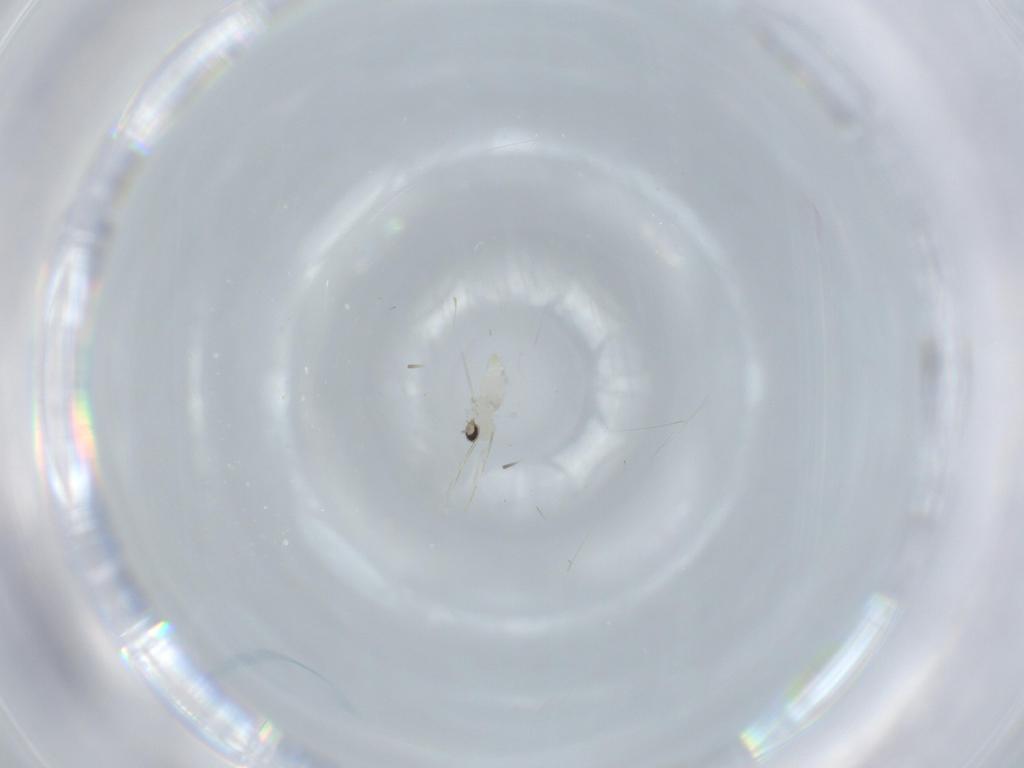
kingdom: Animalia
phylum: Arthropoda
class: Insecta
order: Diptera
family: Cecidomyiidae
